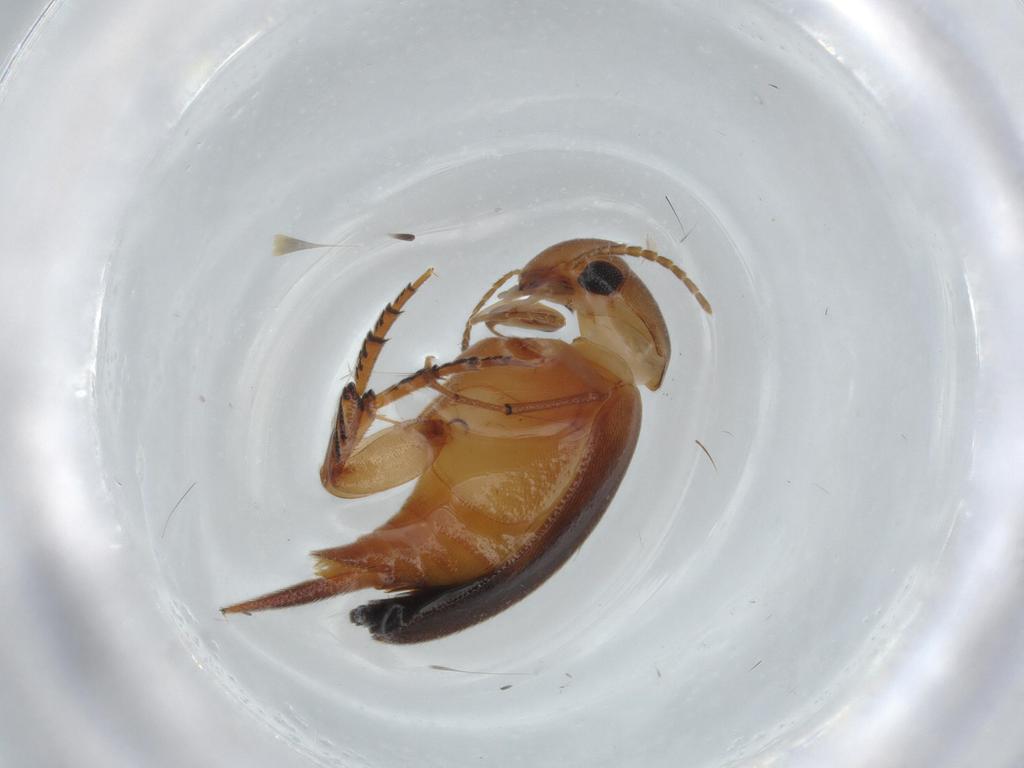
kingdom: Animalia
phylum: Arthropoda
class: Insecta
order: Coleoptera
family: Mordellidae
